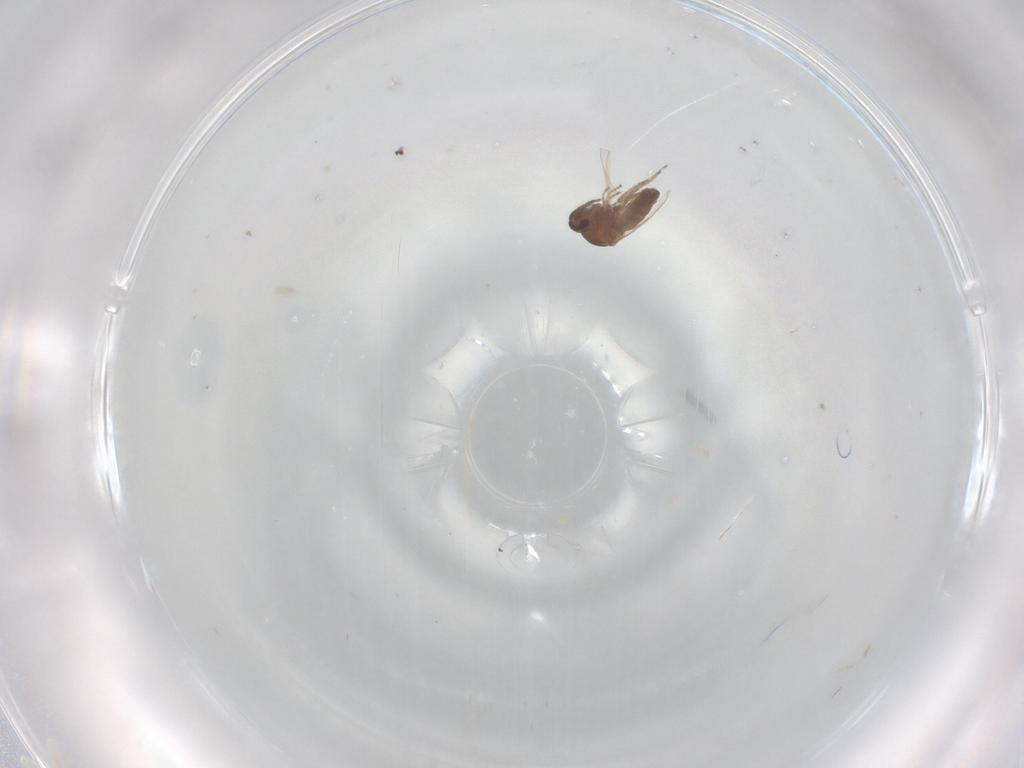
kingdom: Animalia
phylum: Arthropoda
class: Insecta
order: Diptera
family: Ceratopogonidae
